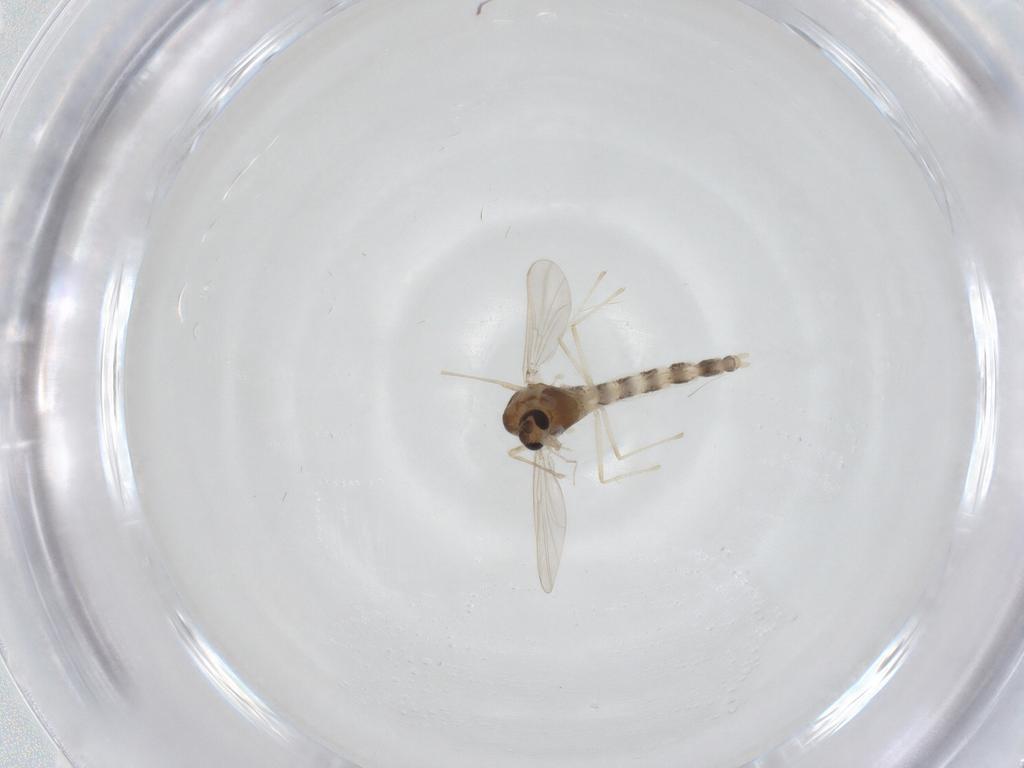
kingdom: Animalia
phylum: Arthropoda
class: Insecta
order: Diptera
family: Chironomidae
